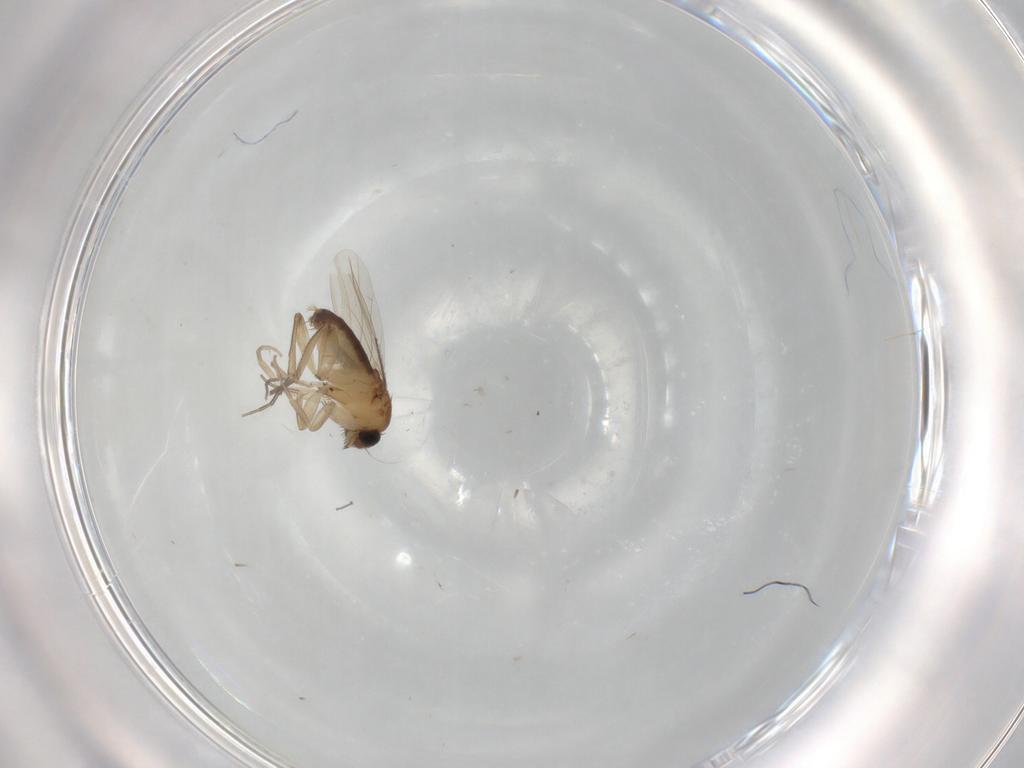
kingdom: Animalia
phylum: Arthropoda
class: Insecta
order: Diptera
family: Phoridae
